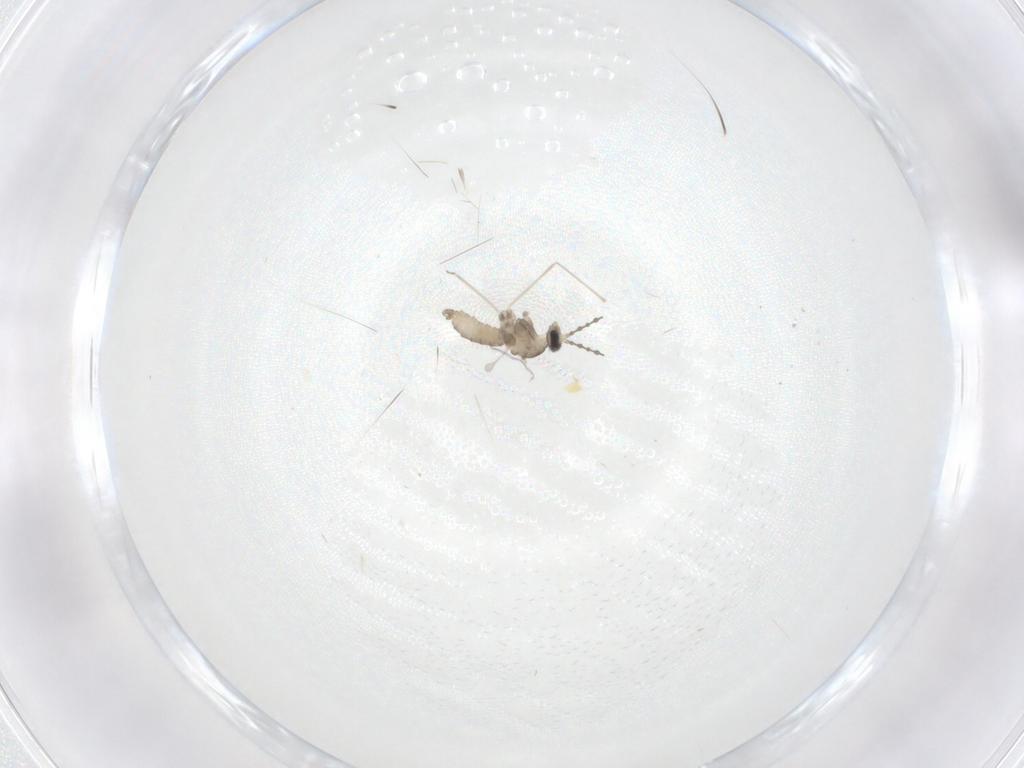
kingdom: Animalia
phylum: Arthropoda
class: Insecta
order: Diptera
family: Cecidomyiidae
